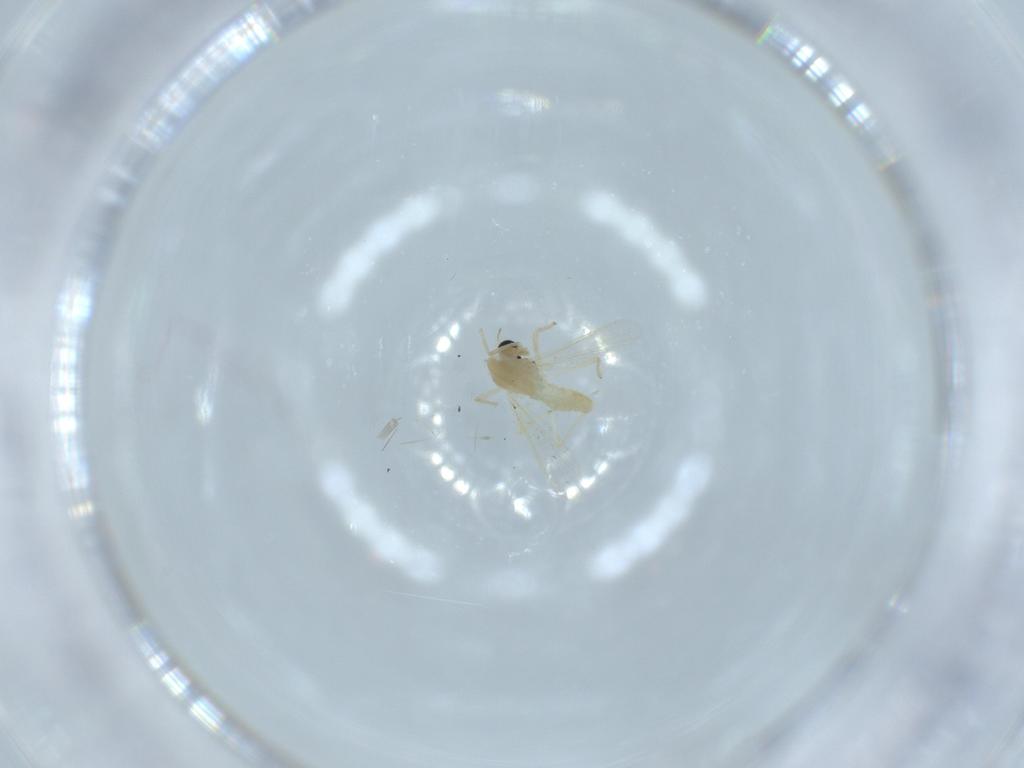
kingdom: Animalia
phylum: Arthropoda
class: Insecta
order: Diptera
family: Chironomidae
